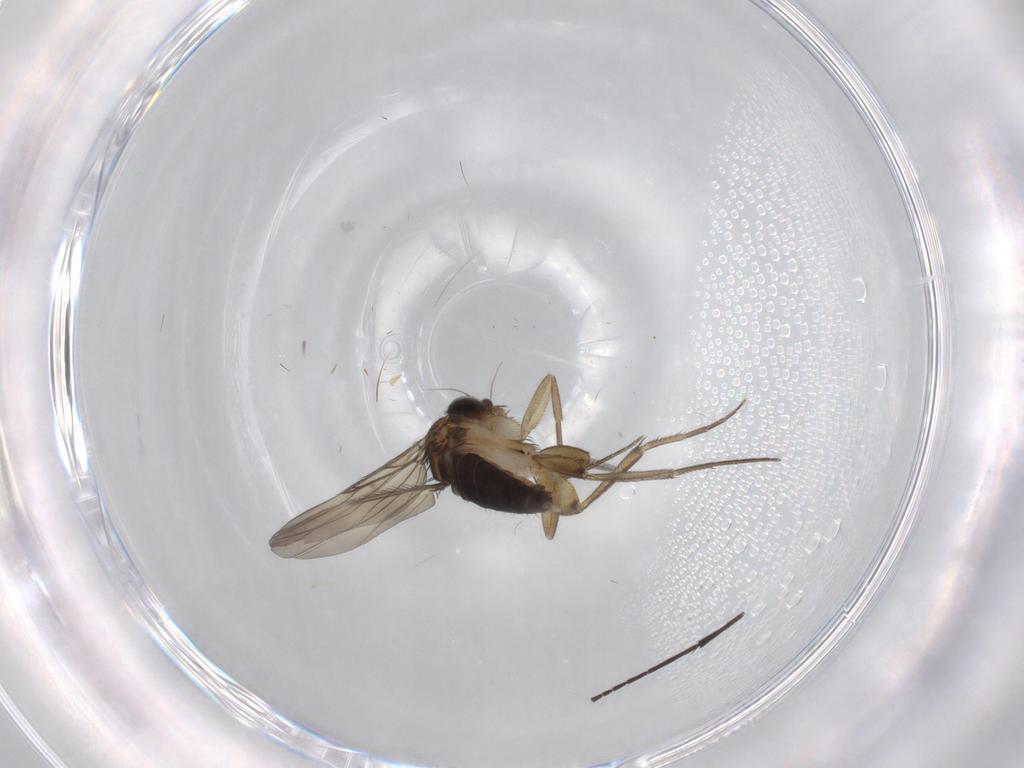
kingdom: Animalia
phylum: Arthropoda
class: Insecta
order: Diptera
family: Sciaridae
